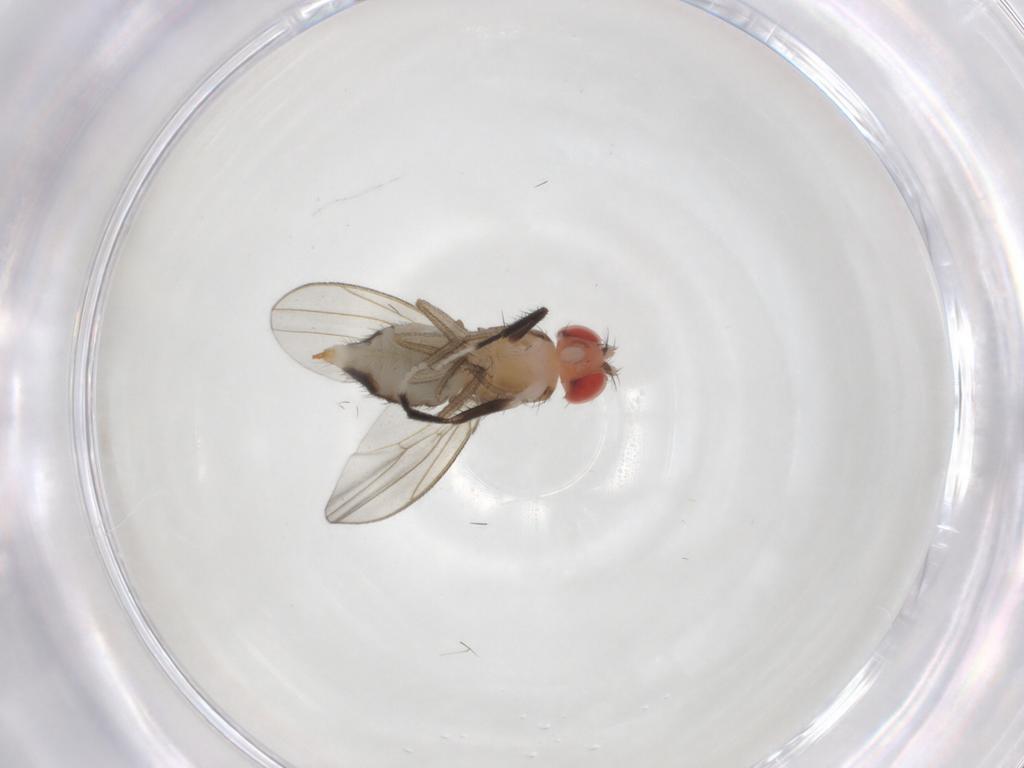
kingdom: Animalia
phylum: Arthropoda
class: Insecta
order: Diptera
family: Drosophilidae
